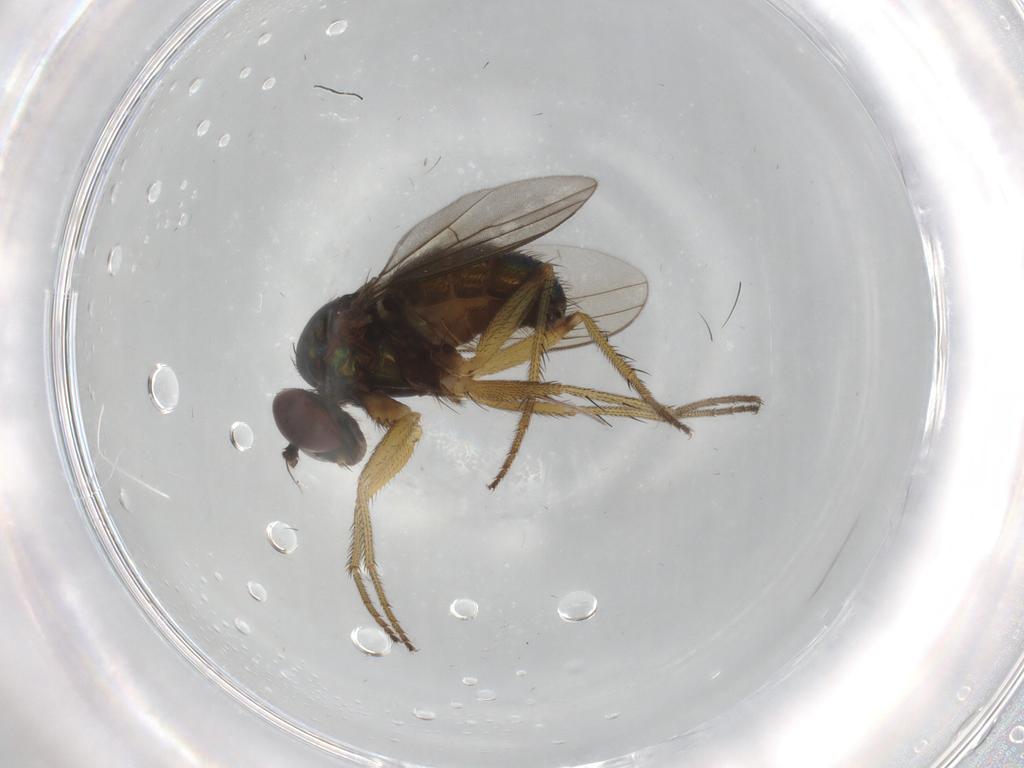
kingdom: Animalia
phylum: Arthropoda
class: Insecta
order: Diptera
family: Dolichopodidae
